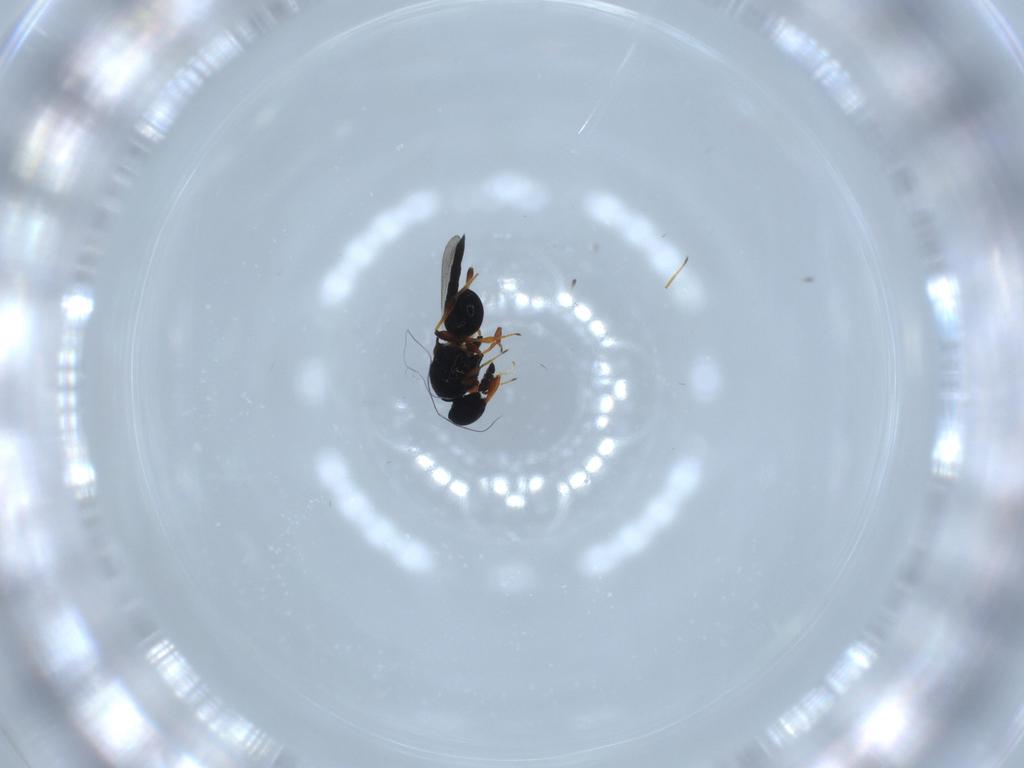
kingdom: Animalia
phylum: Arthropoda
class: Insecta
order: Hymenoptera
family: Platygastridae
